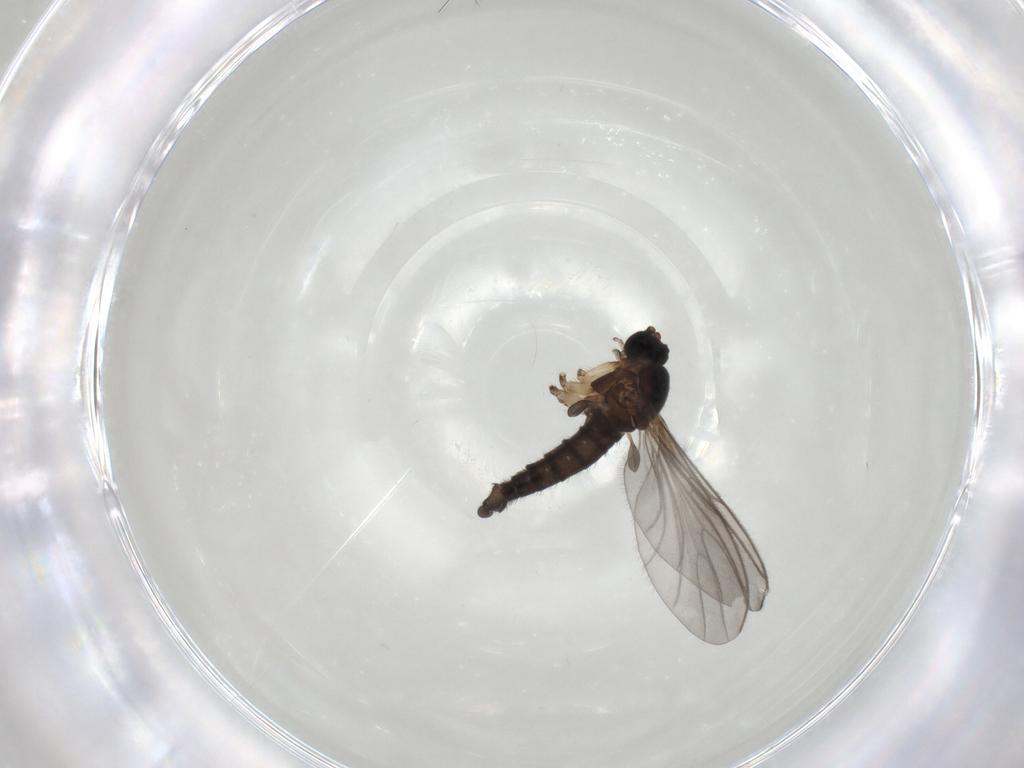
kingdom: Animalia
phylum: Arthropoda
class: Insecta
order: Diptera
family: Sciaridae
